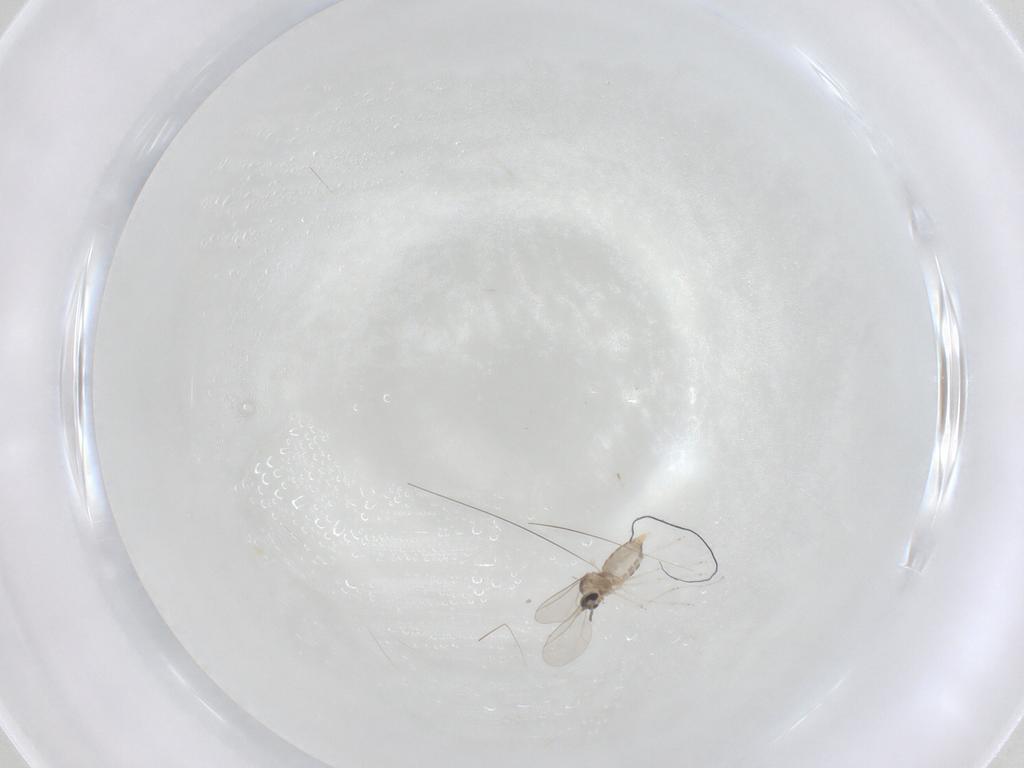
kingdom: Animalia
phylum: Arthropoda
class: Insecta
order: Diptera
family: Cecidomyiidae
